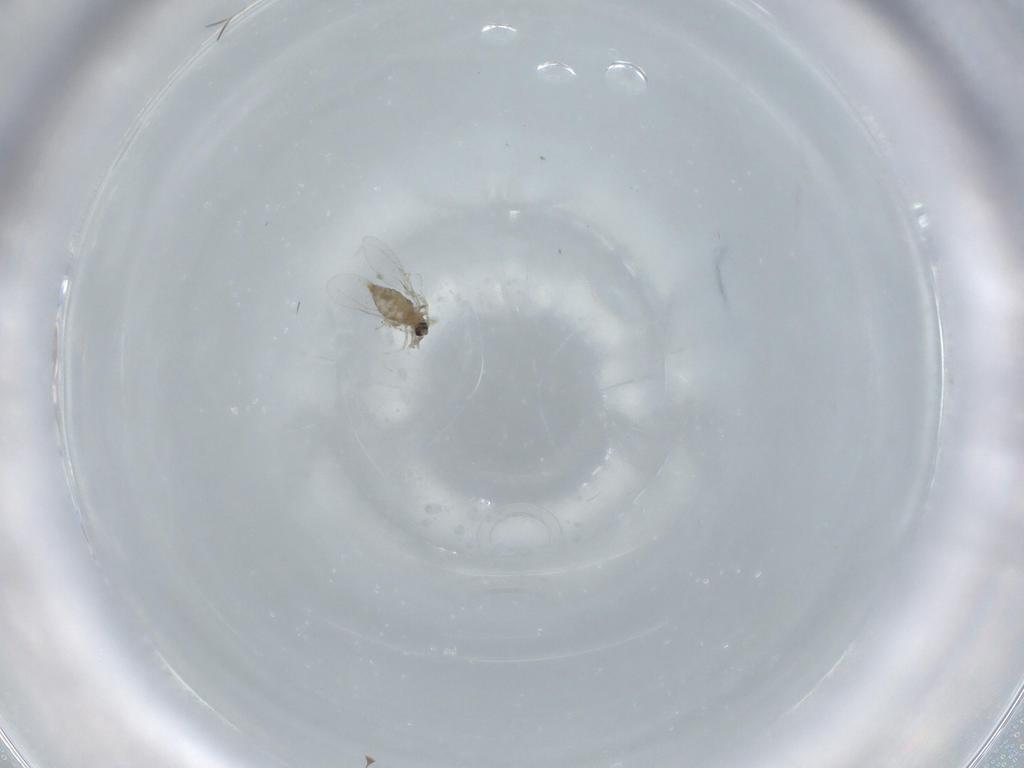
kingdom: Animalia
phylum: Arthropoda
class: Insecta
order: Diptera
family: Cecidomyiidae
